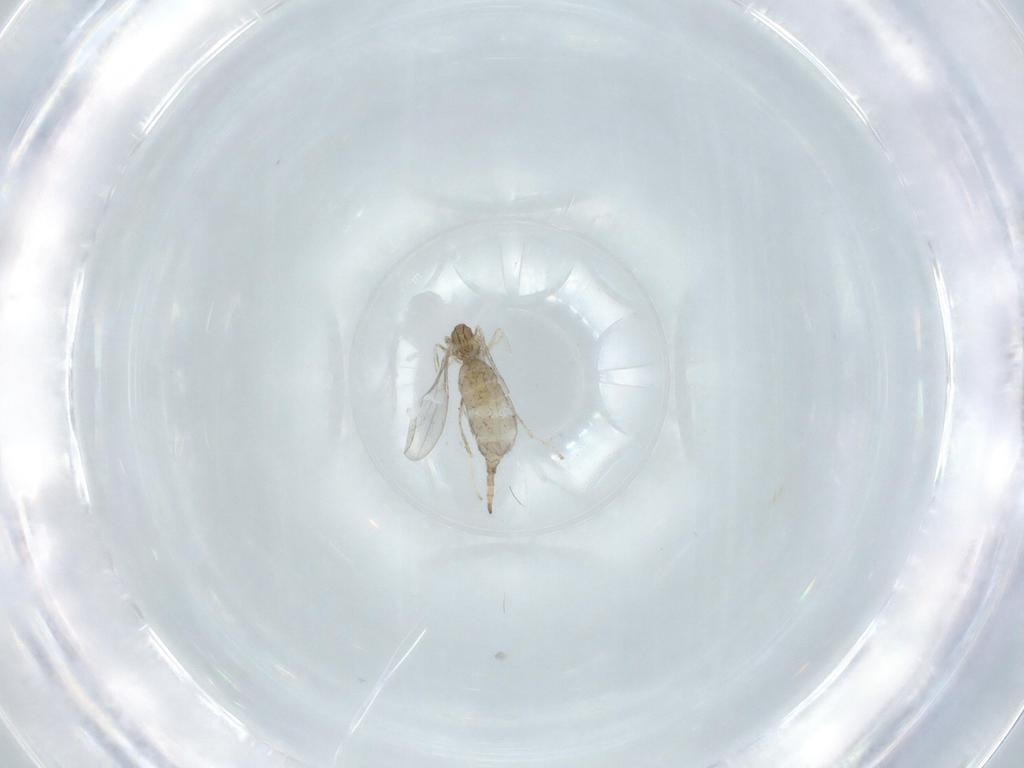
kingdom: Animalia
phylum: Arthropoda
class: Insecta
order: Diptera
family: Cecidomyiidae
